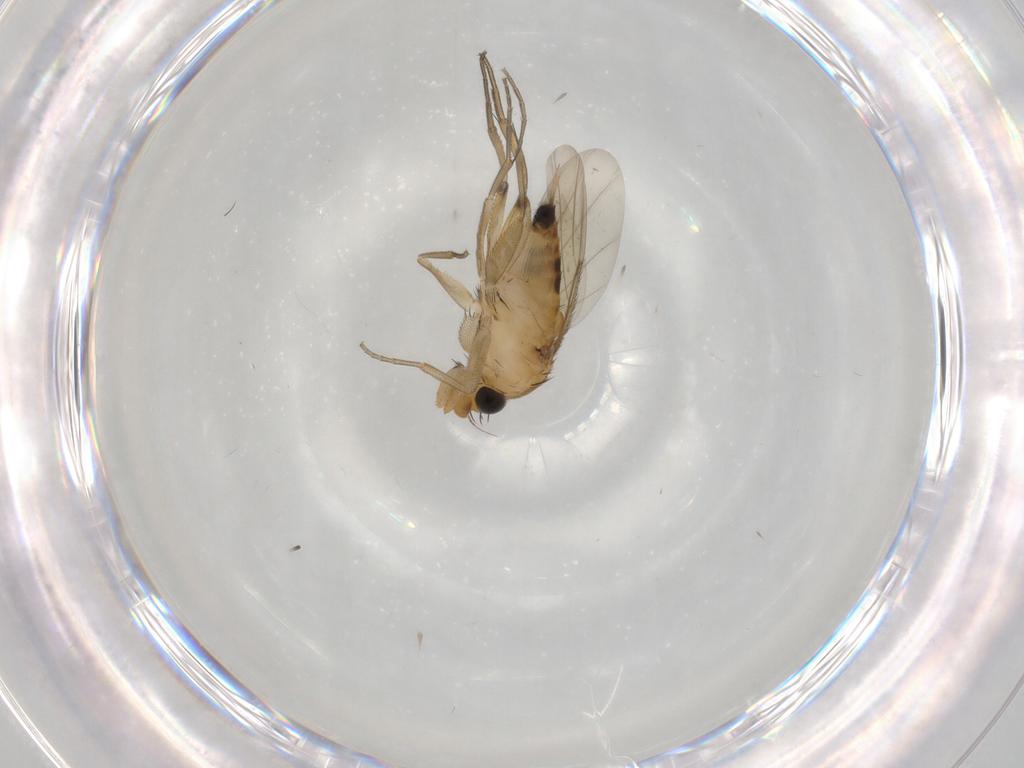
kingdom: Animalia
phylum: Arthropoda
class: Insecta
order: Diptera
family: Phoridae
